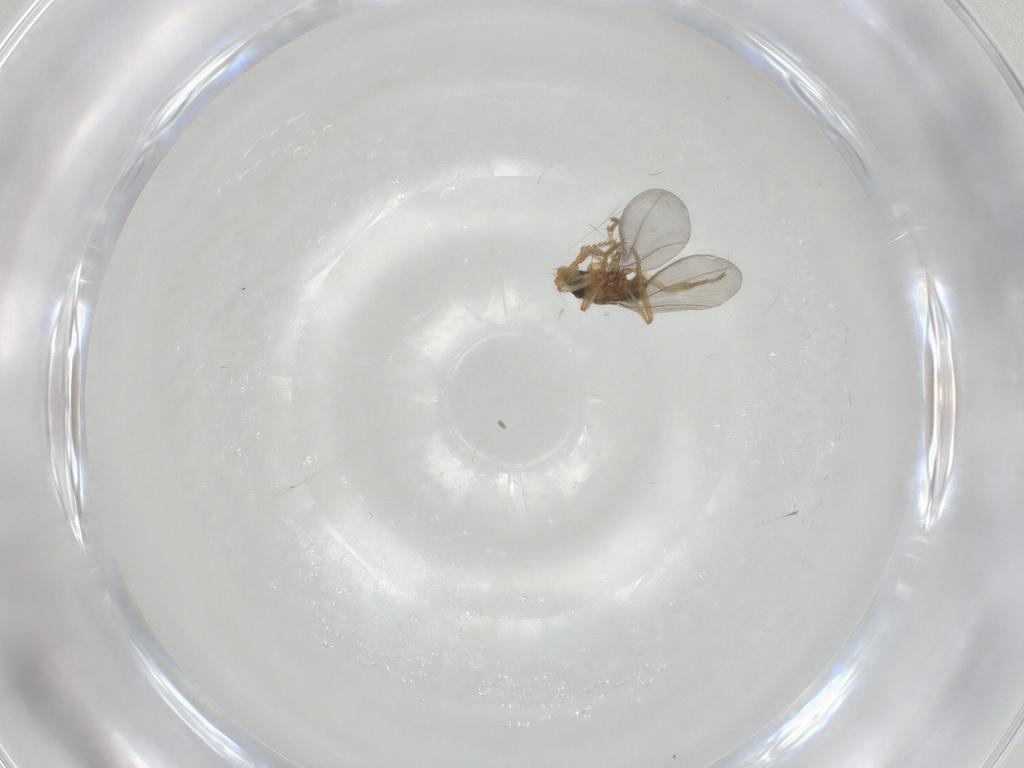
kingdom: Animalia
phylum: Arthropoda
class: Insecta
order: Diptera
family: Phoridae
